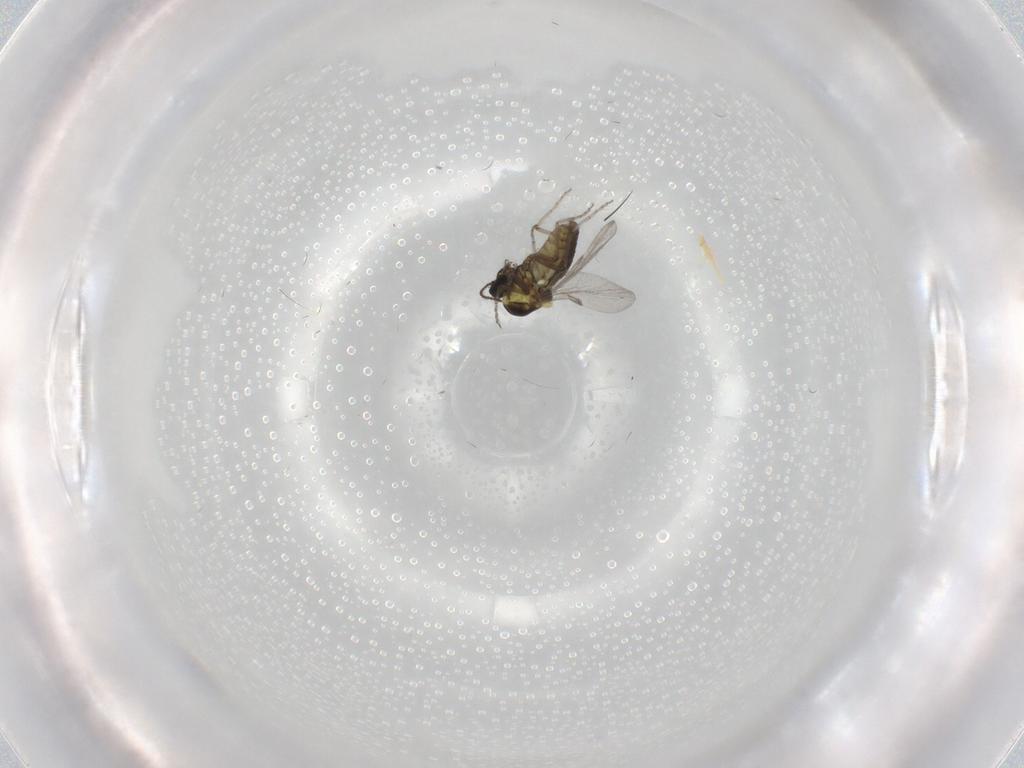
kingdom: Animalia
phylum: Arthropoda
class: Insecta
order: Diptera
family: Chironomidae
